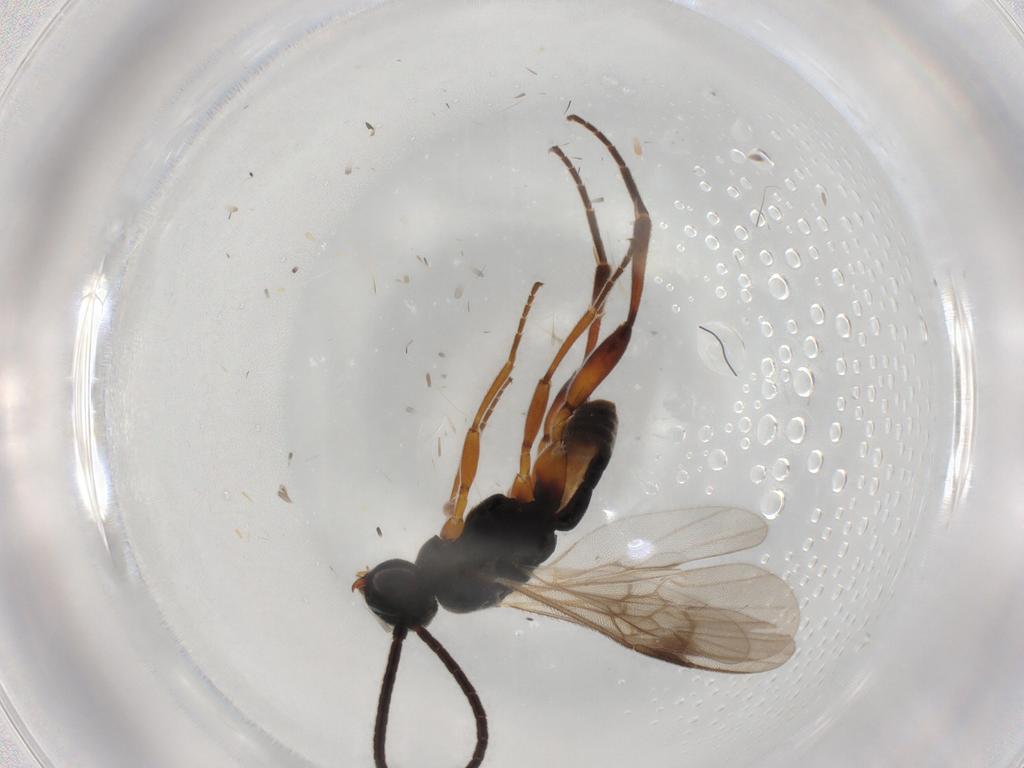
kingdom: Animalia
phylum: Arthropoda
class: Insecta
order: Hymenoptera
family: Braconidae
